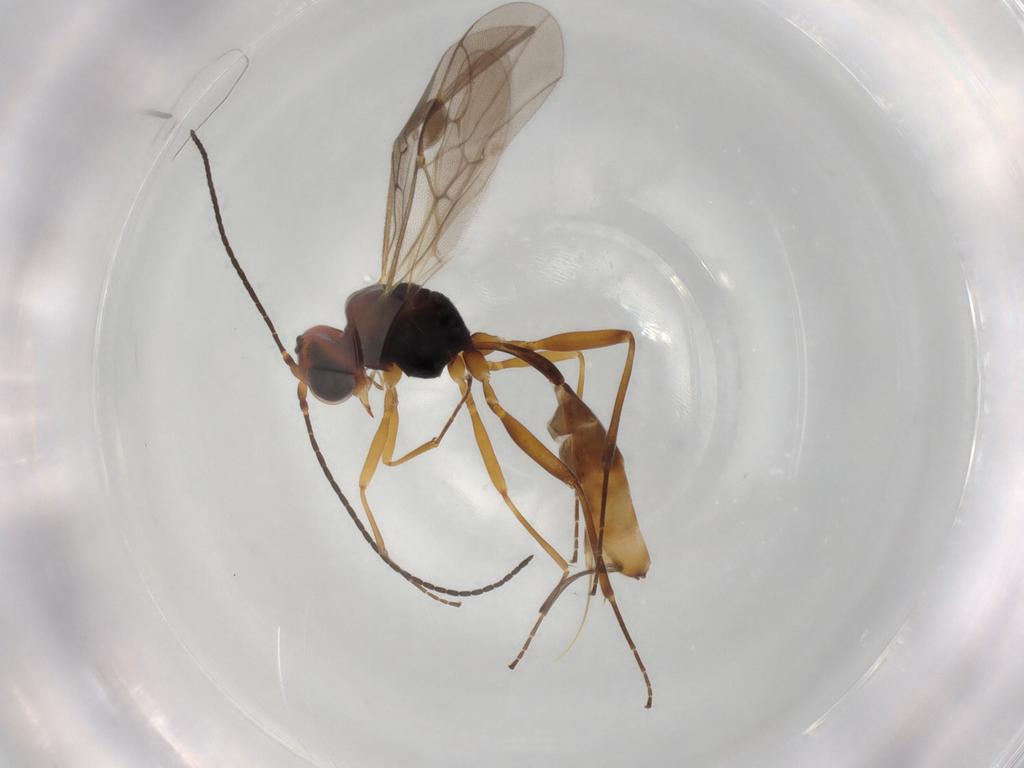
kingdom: Animalia
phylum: Arthropoda
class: Insecta
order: Hymenoptera
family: Braconidae
